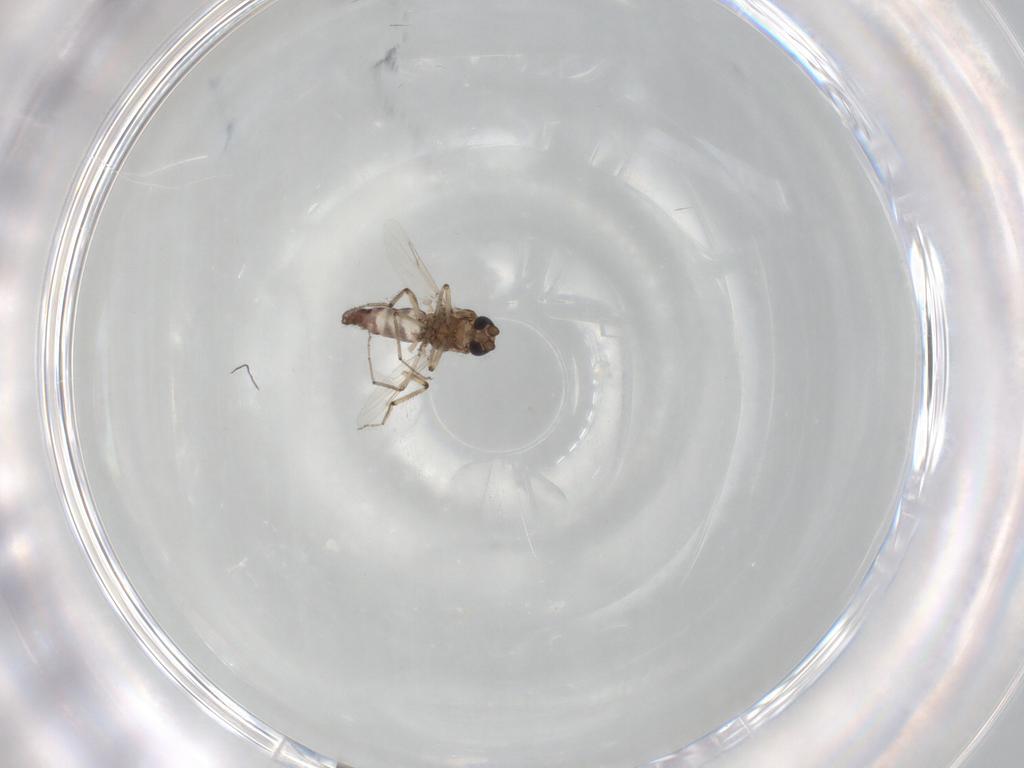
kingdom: Animalia
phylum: Arthropoda
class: Insecta
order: Diptera
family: Ceratopogonidae
